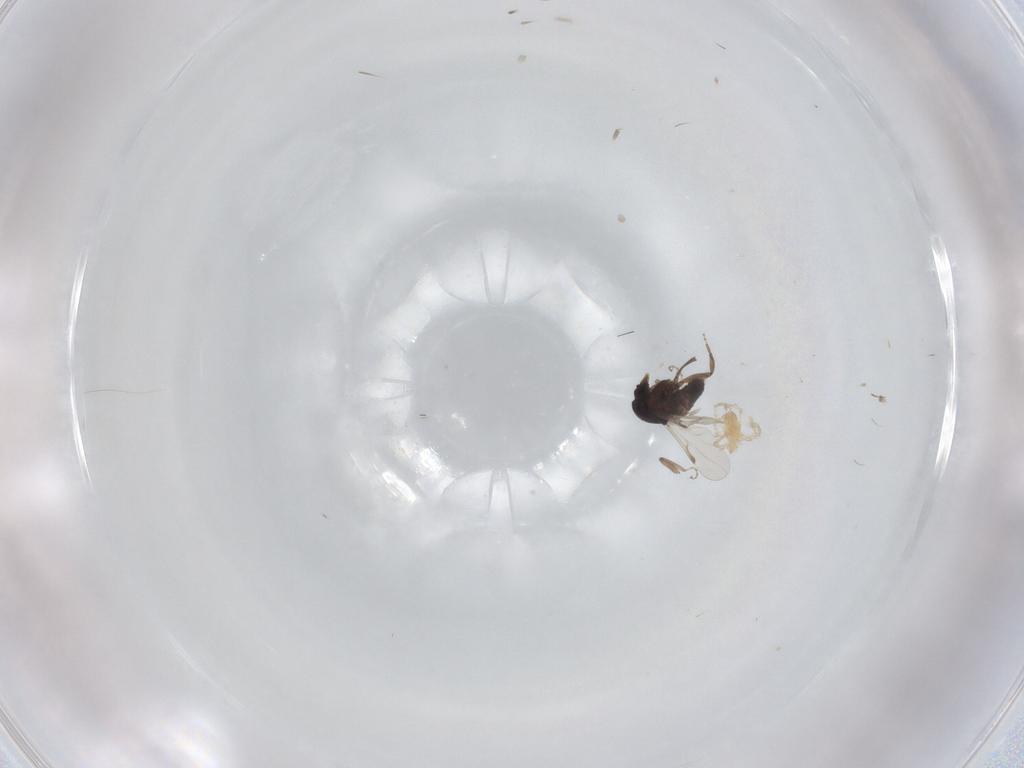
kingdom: Animalia
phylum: Arthropoda
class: Insecta
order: Diptera
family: Ceratopogonidae
